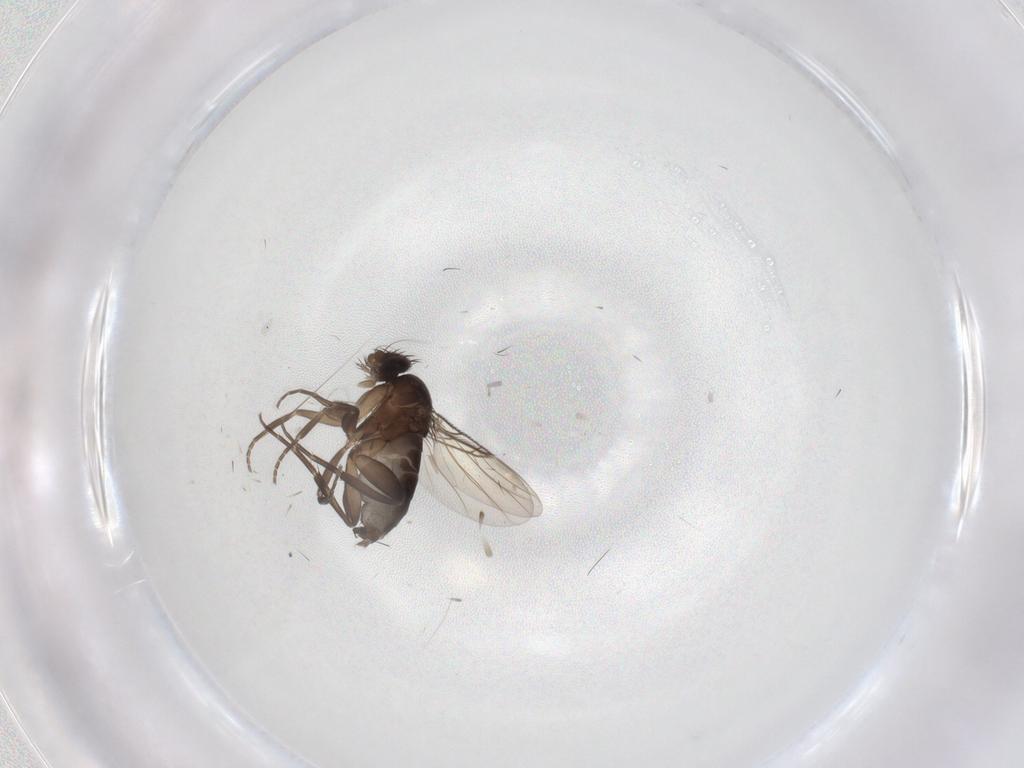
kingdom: Animalia
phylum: Arthropoda
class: Insecta
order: Diptera
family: Phoridae
